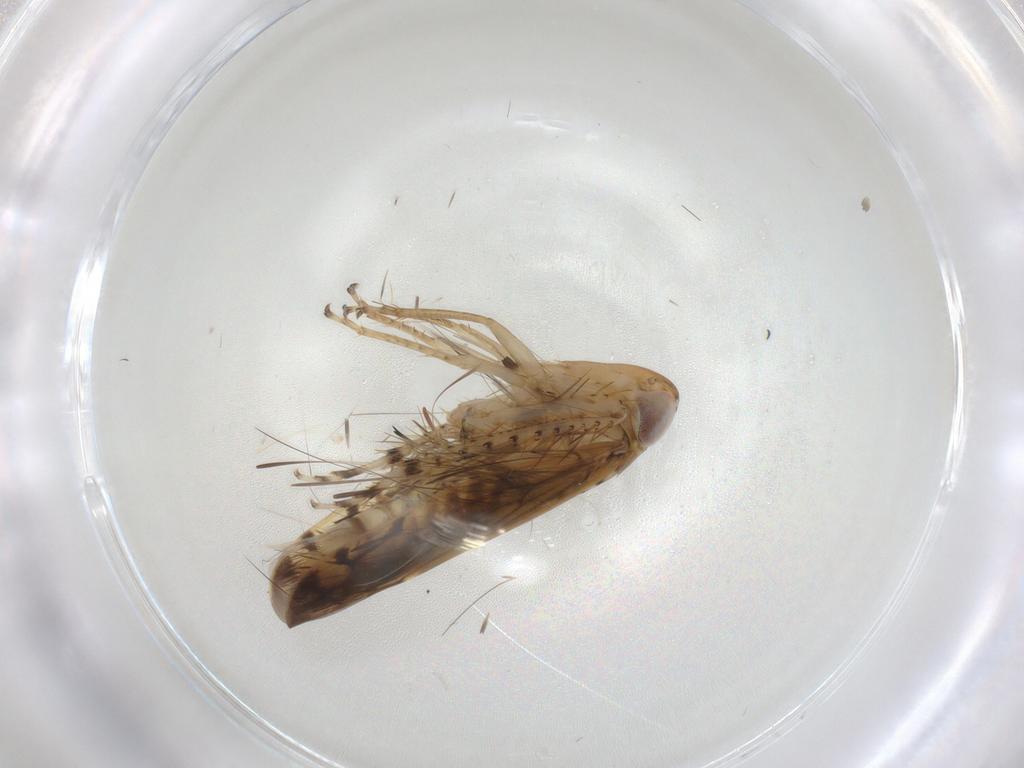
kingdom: Animalia
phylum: Arthropoda
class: Insecta
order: Hemiptera
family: Cicadellidae
